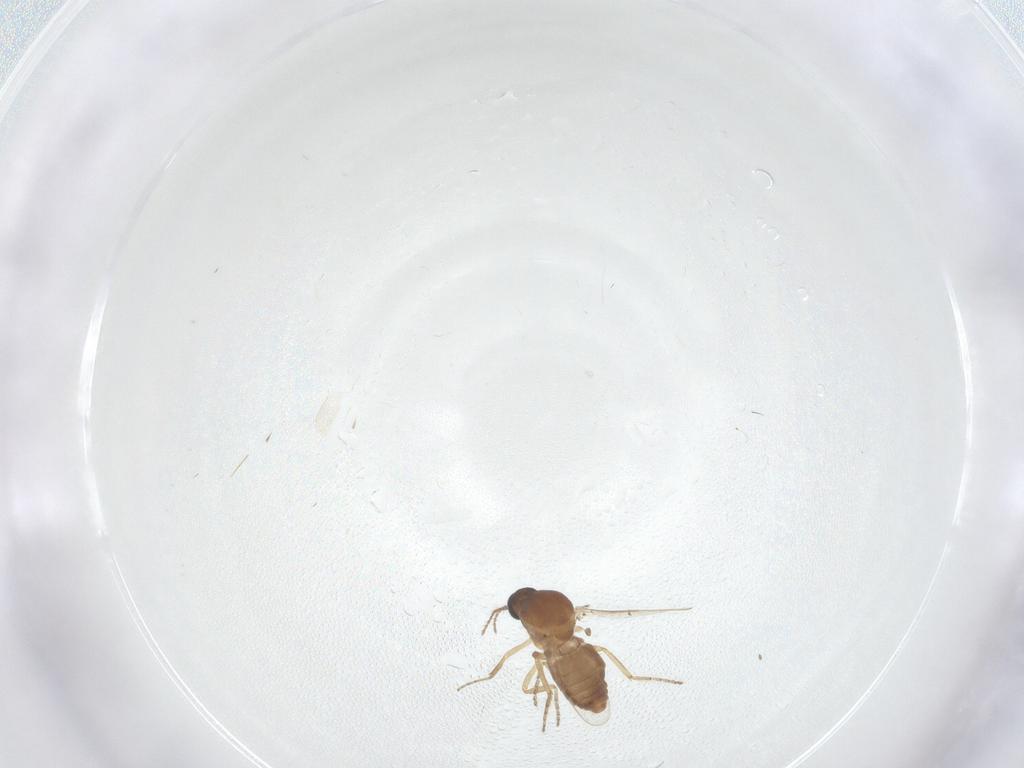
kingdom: Animalia
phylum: Arthropoda
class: Insecta
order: Diptera
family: Ceratopogonidae
